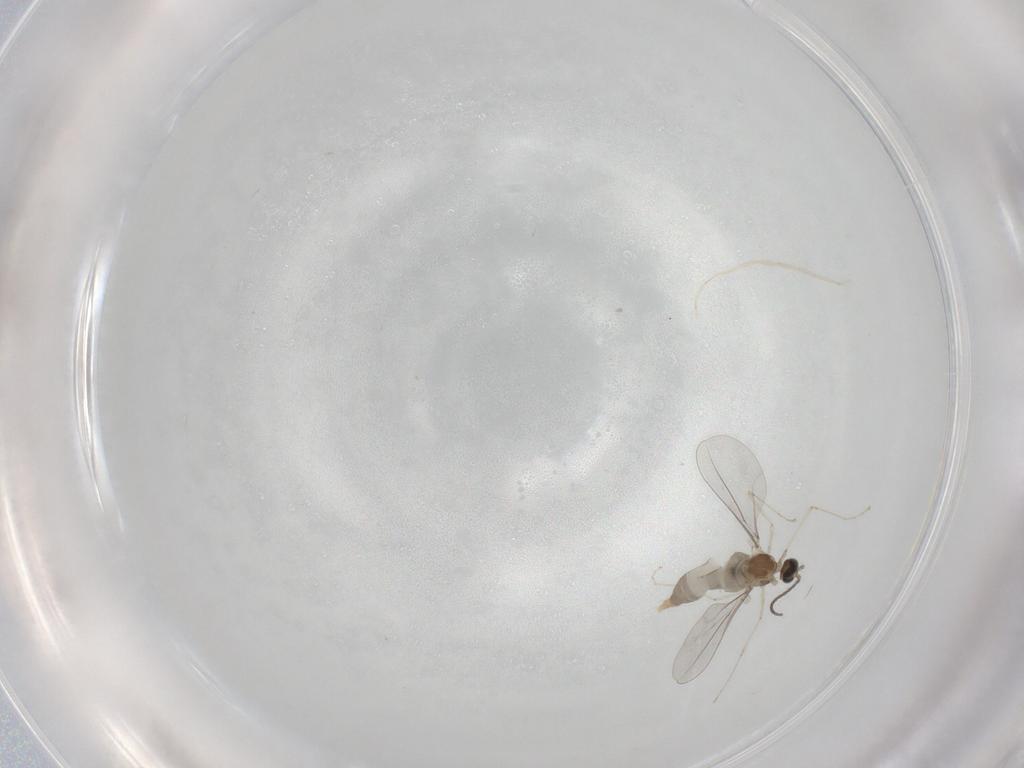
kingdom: Animalia
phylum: Arthropoda
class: Insecta
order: Diptera
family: Cecidomyiidae
